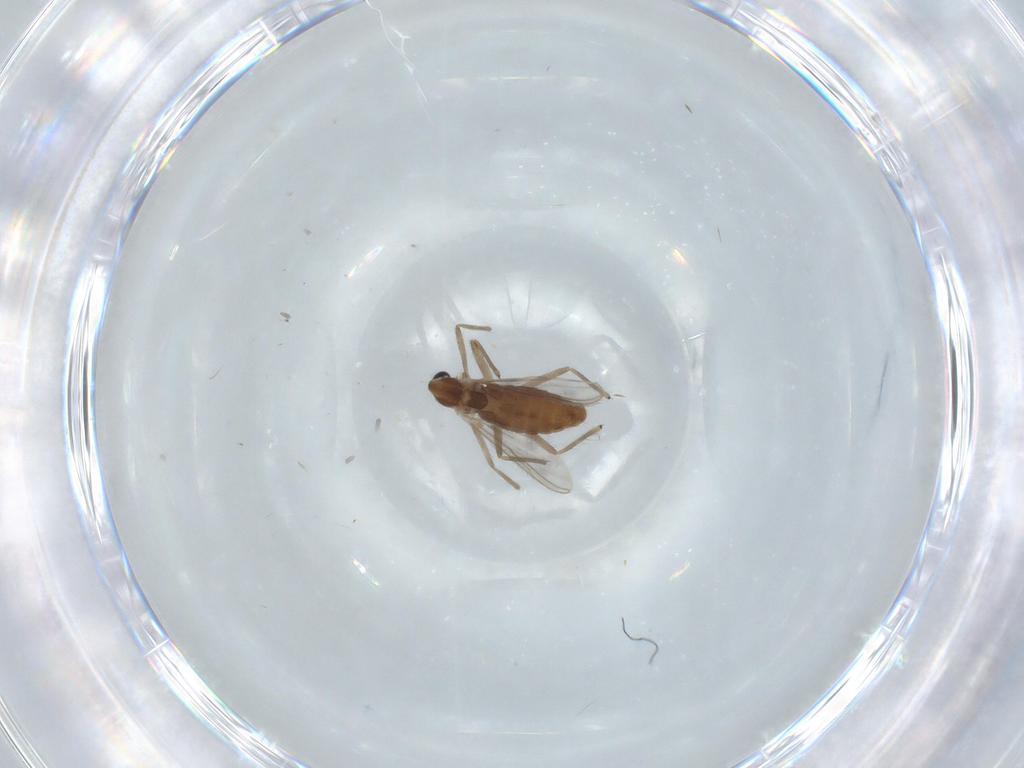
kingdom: Animalia
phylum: Arthropoda
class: Insecta
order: Diptera
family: Chironomidae
